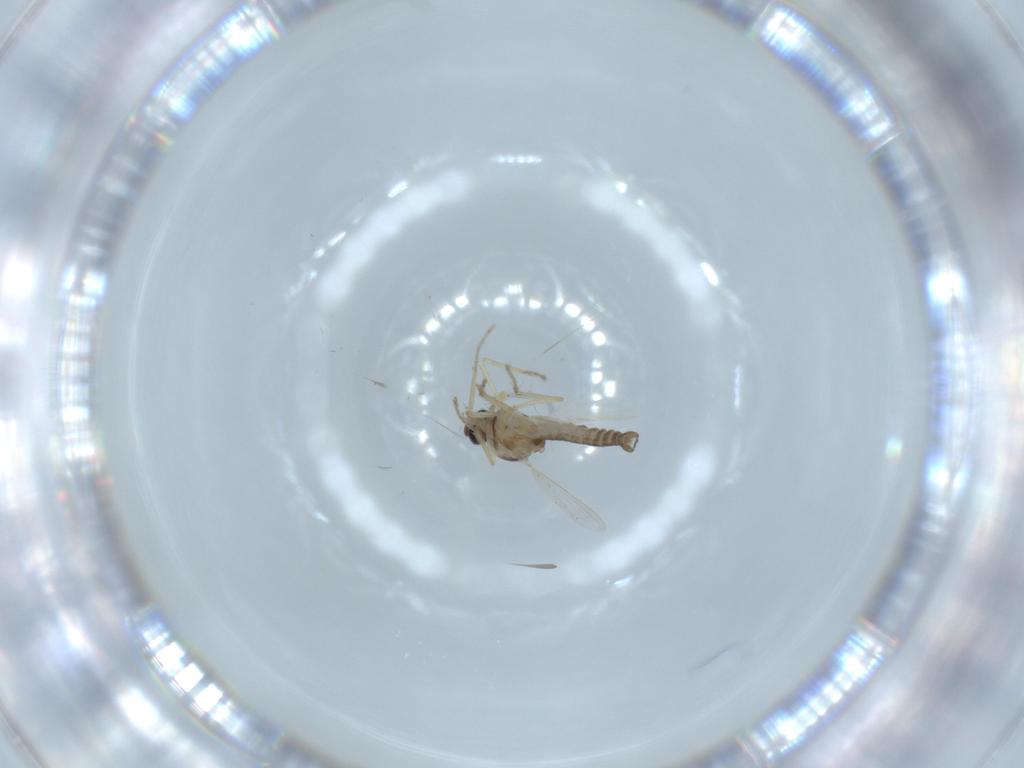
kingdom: Animalia
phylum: Arthropoda
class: Insecta
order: Diptera
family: Ceratopogonidae
